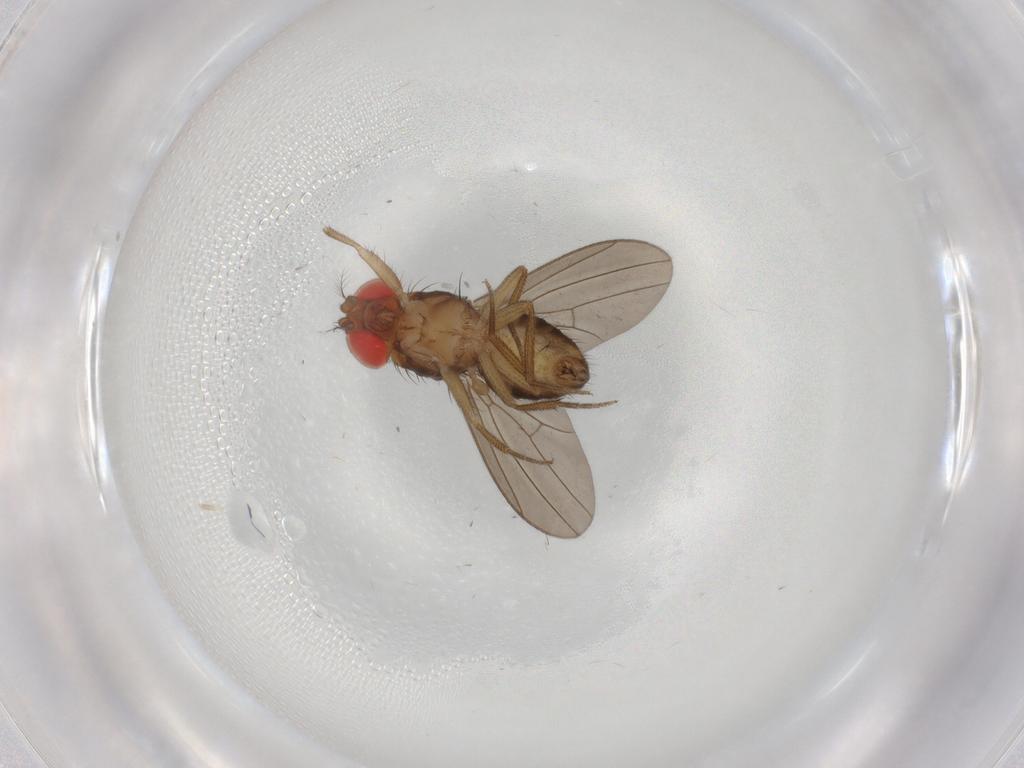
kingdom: Animalia
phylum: Arthropoda
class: Insecta
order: Diptera
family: Drosophilidae
